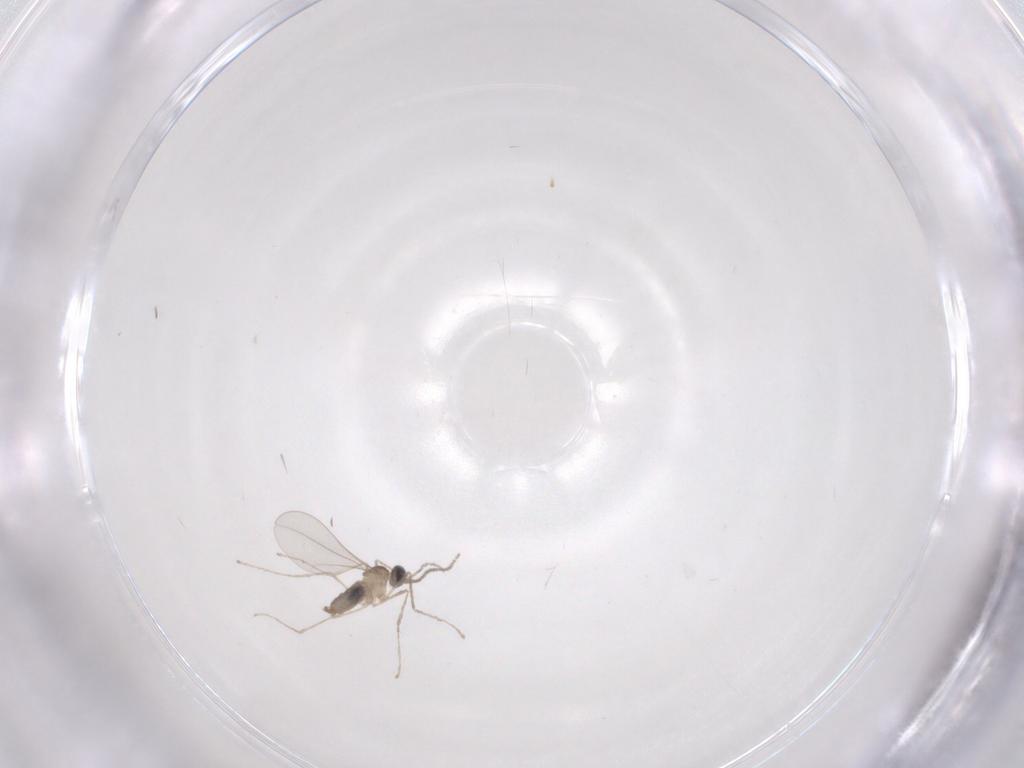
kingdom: Animalia
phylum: Arthropoda
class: Insecta
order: Diptera
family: Cecidomyiidae
